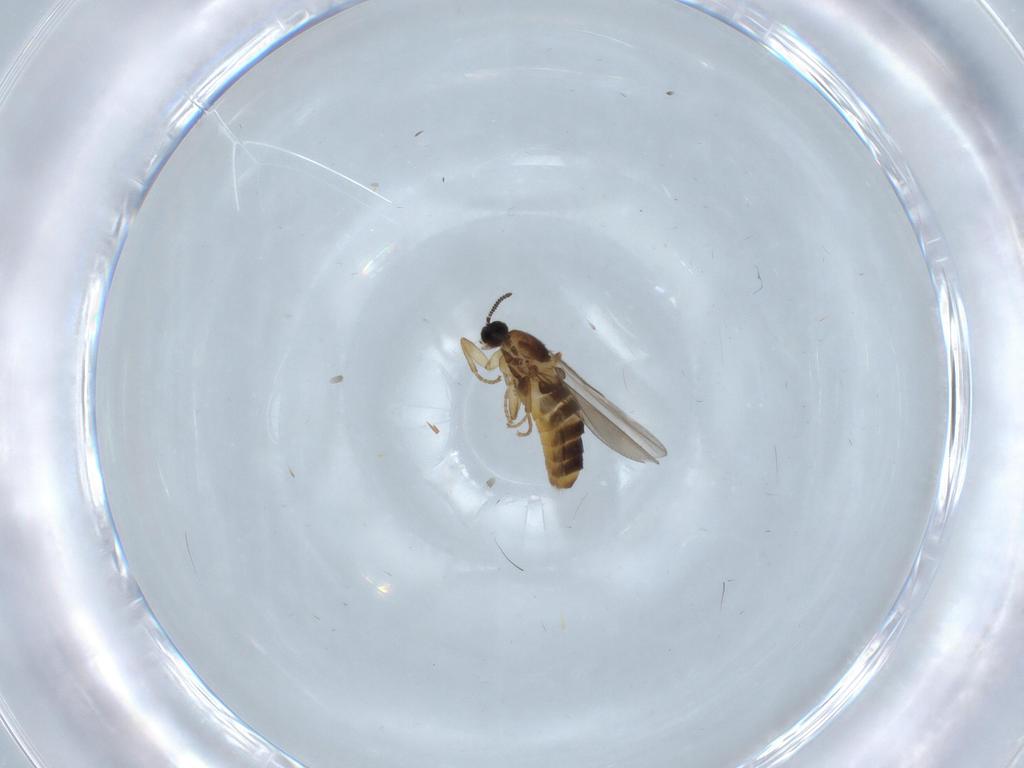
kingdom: Animalia
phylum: Arthropoda
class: Insecta
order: Diptera
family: Scatopsidae
